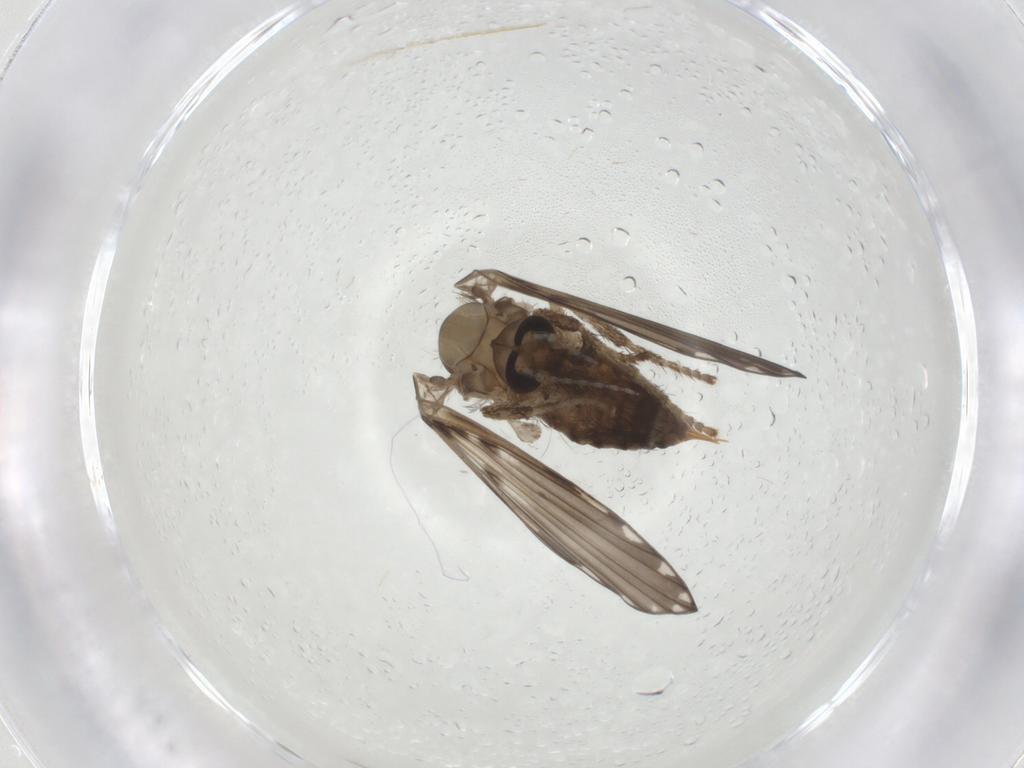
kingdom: Animalia
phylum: Arthropoda
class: Insecta
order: Diptera
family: Psychodidae
